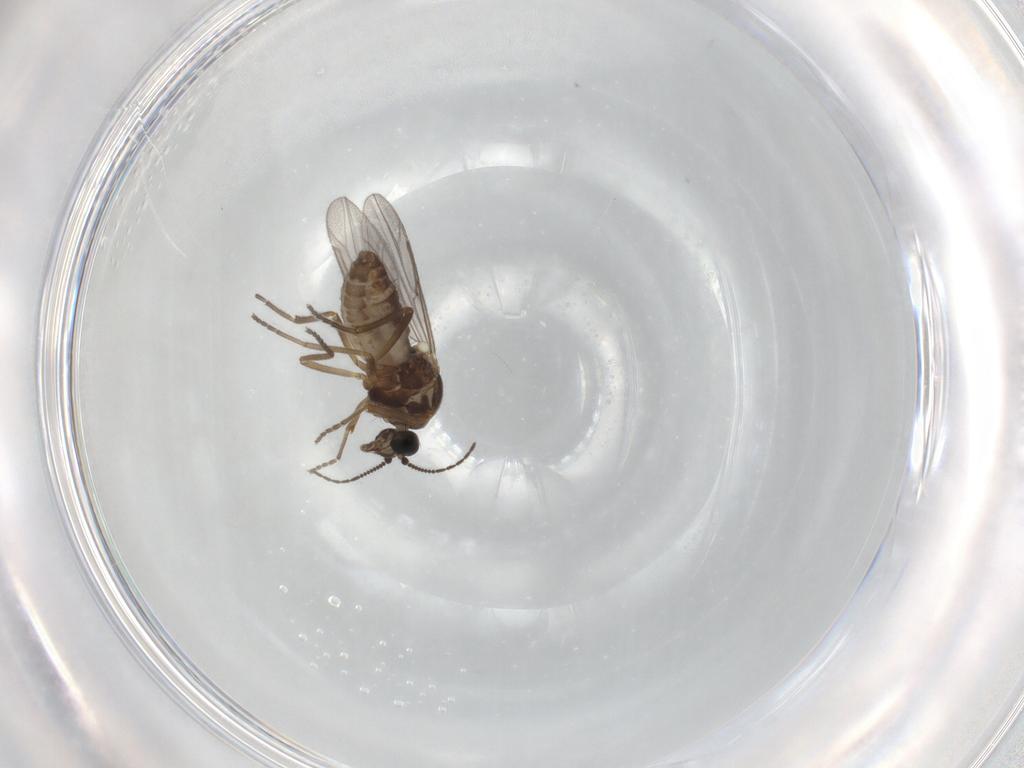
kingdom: Animalia
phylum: Arthropoda
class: Insecta
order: Diptera
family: Ceratopogonidae
